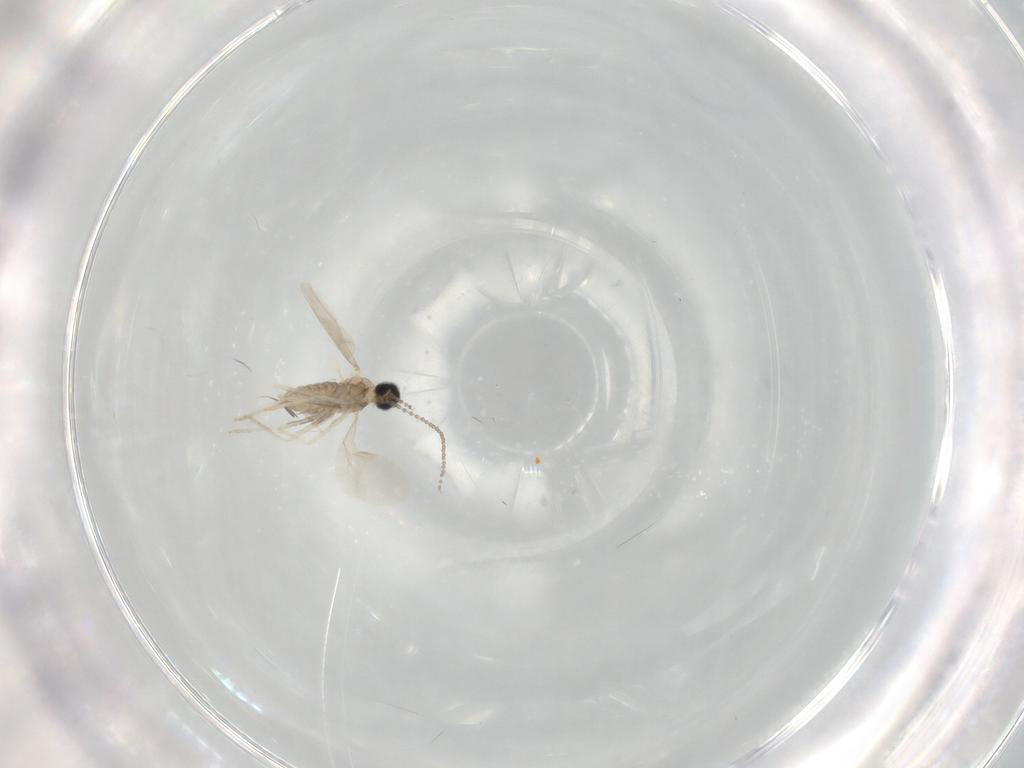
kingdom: Animalia
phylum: Arthropoda
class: Insecta
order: Diptera
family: Cecidomyiidae
